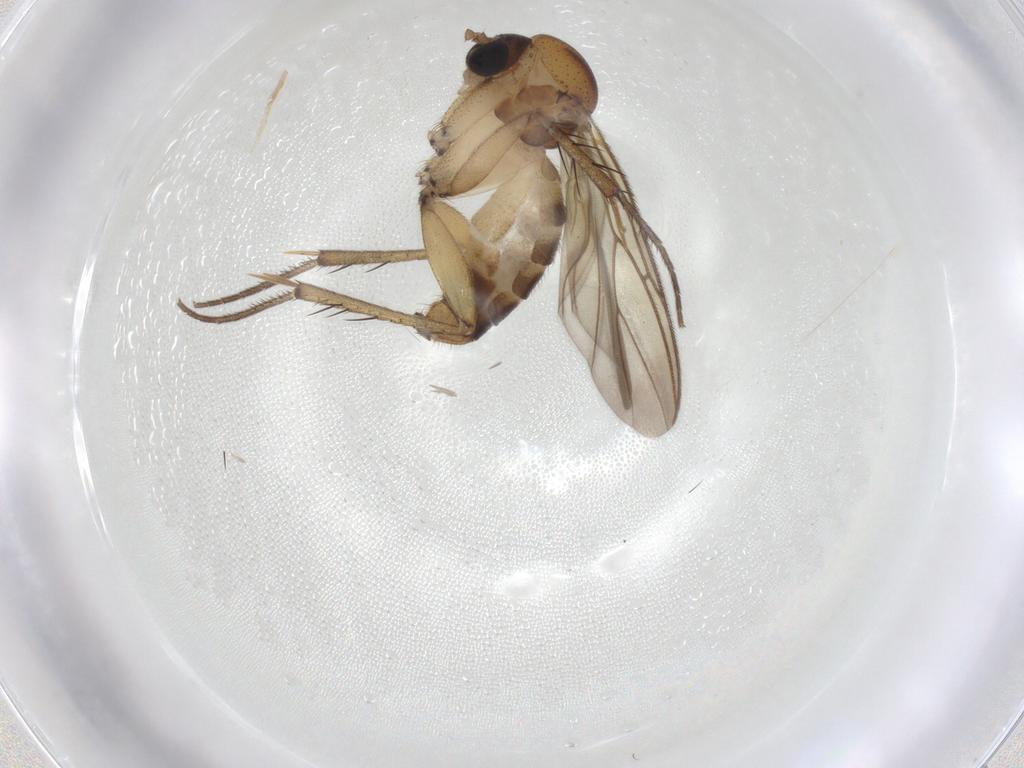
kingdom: Animalia
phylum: Arthropoda
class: Insecta
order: Diptera
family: Mycetophilidae
